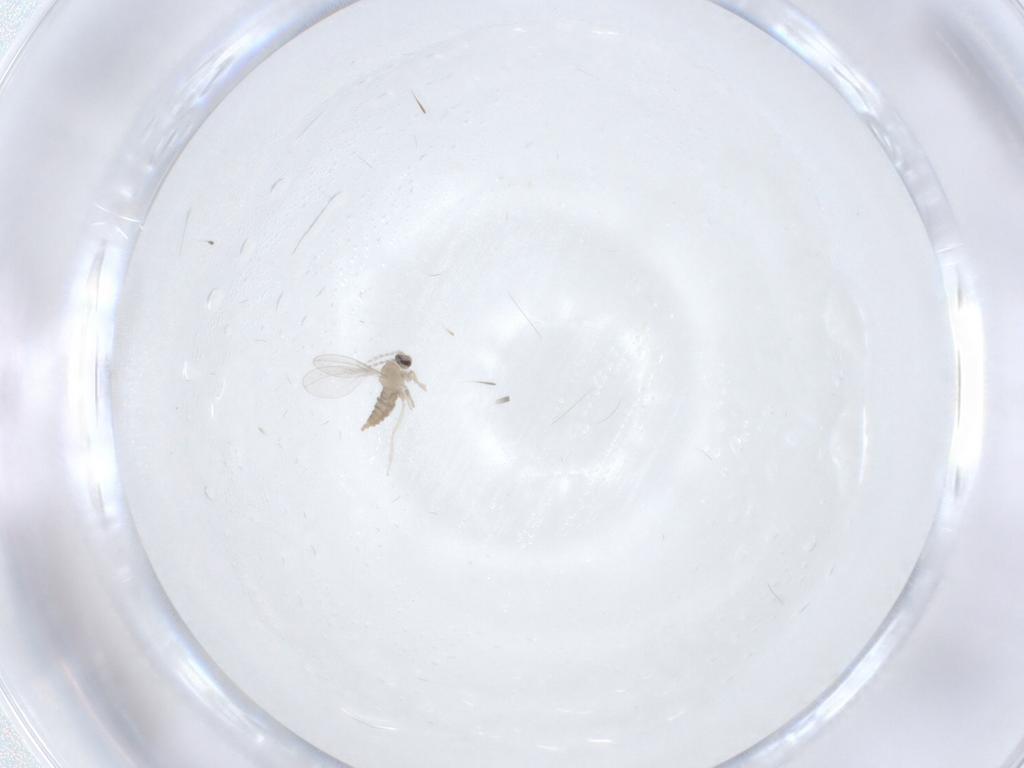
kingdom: Animalia
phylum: Arthropoda
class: Insecta
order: Diptera
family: Cecidomyiidae
